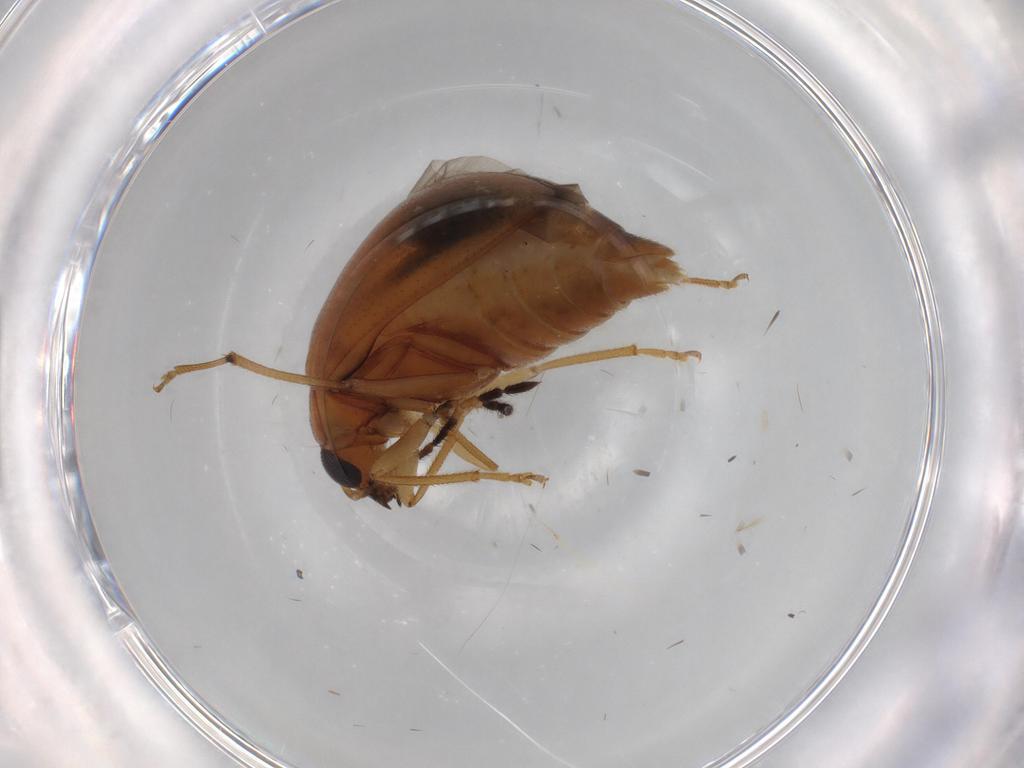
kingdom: Animalia
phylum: Arthropoda
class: Insecta
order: Coleoptera
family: Chrysomelidae
